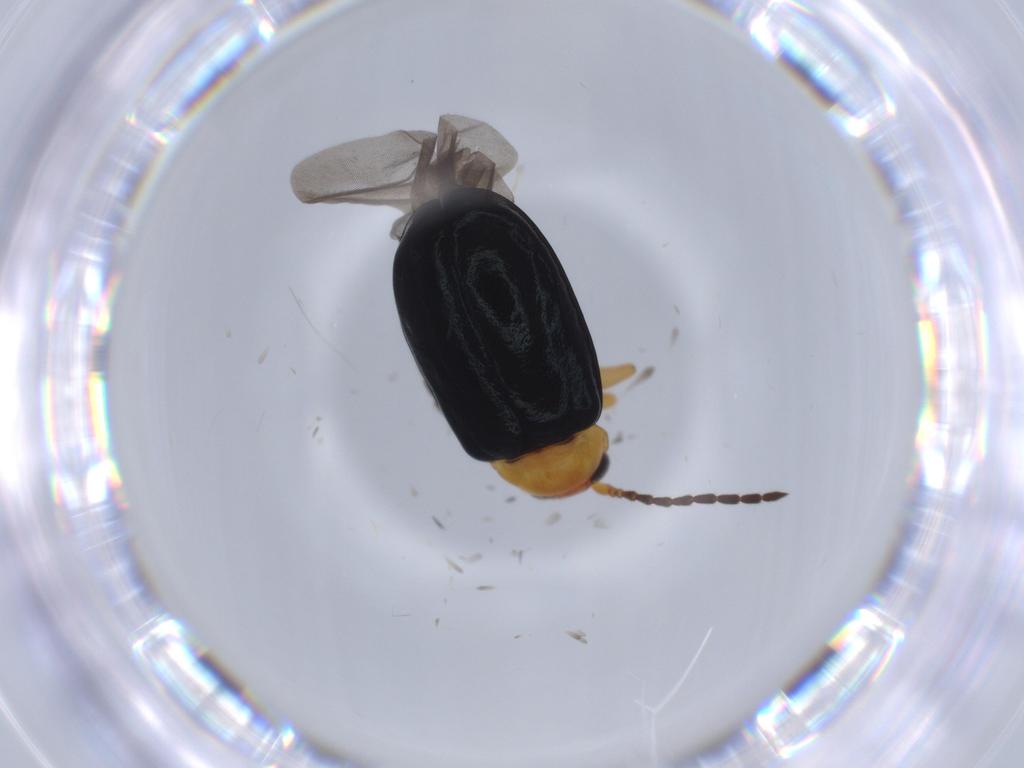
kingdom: Animalia
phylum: Arthropoda
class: Insecta
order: Coleoptera
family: Chrysomelidae
